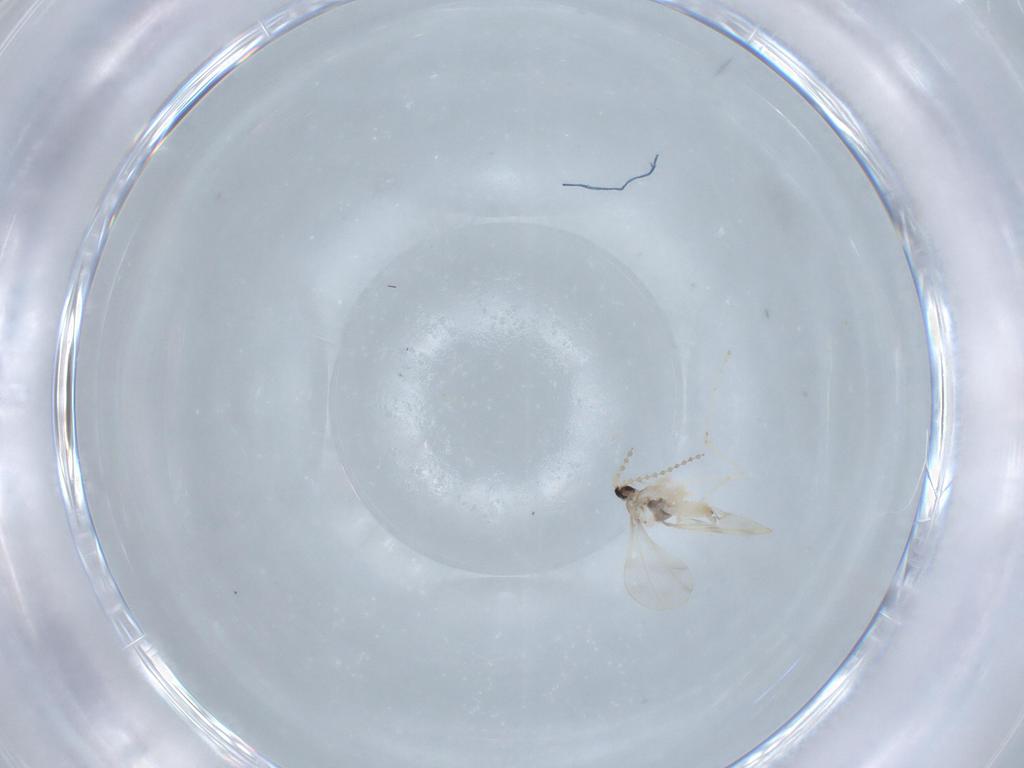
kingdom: Animalia
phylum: Arthropoda
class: Insecta
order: Diptera
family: Cecidomyiidae
